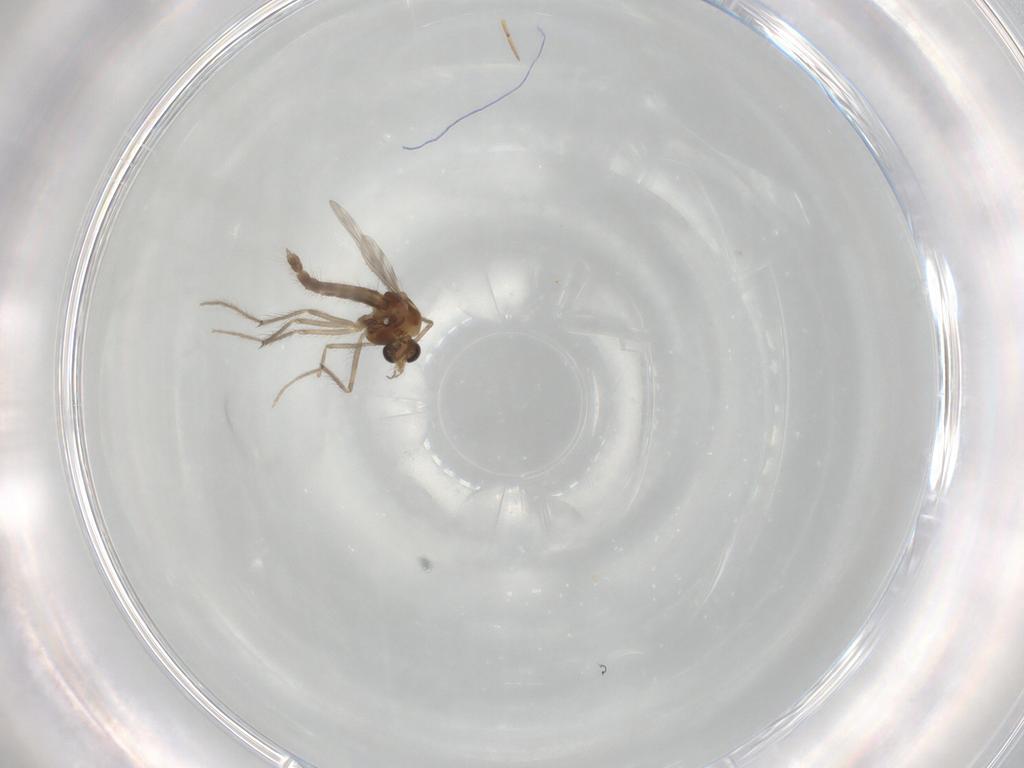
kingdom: Animalia
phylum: Arthropoda
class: Insecta
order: Diptera
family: Chironomidae
